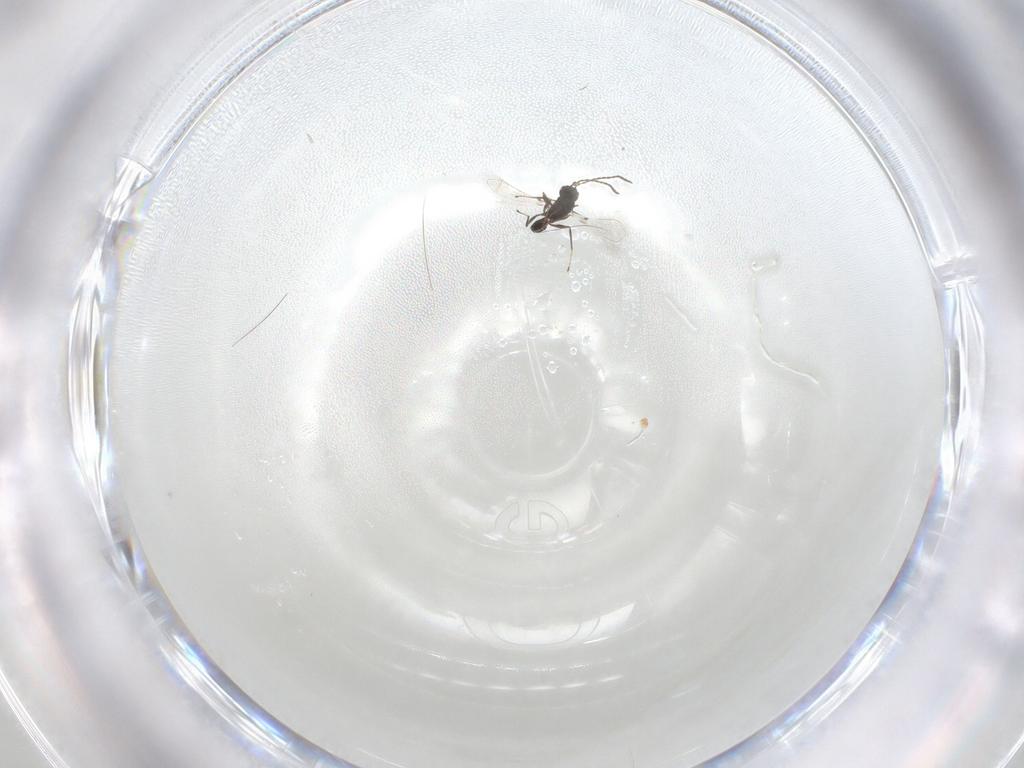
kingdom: Animalia
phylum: Arthropoda
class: Insecta
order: Hymenoptera
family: Mymaridae
